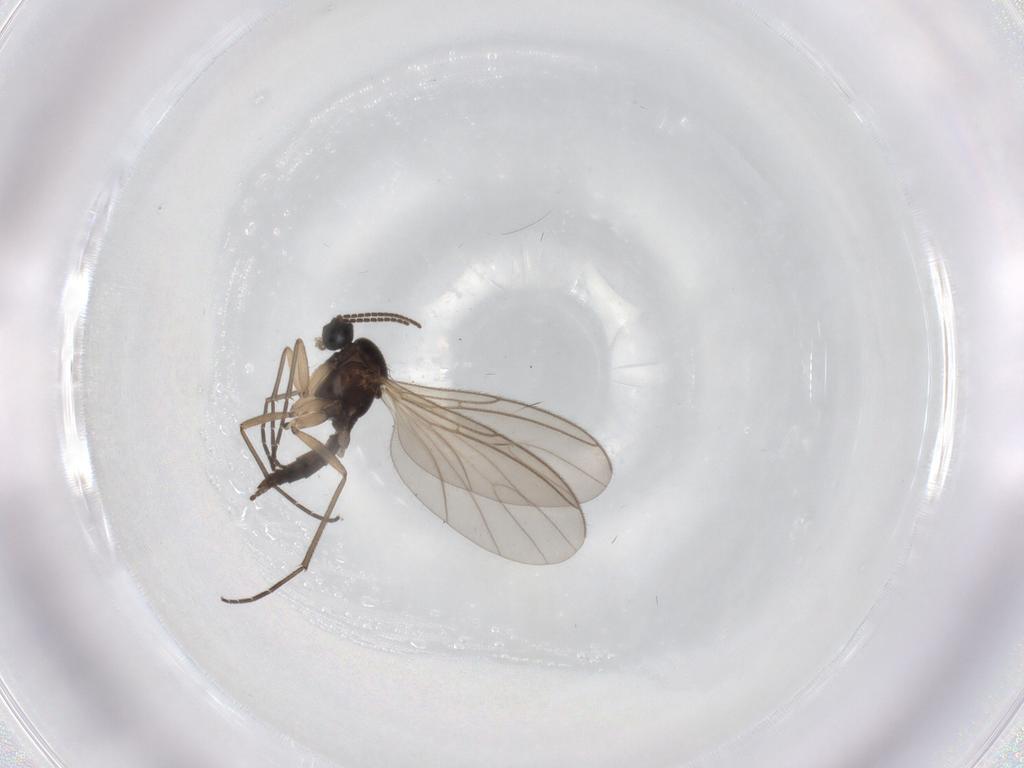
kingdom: Animalia
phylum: Arthropoda
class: Insecta
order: Diptera
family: Sciaridae
